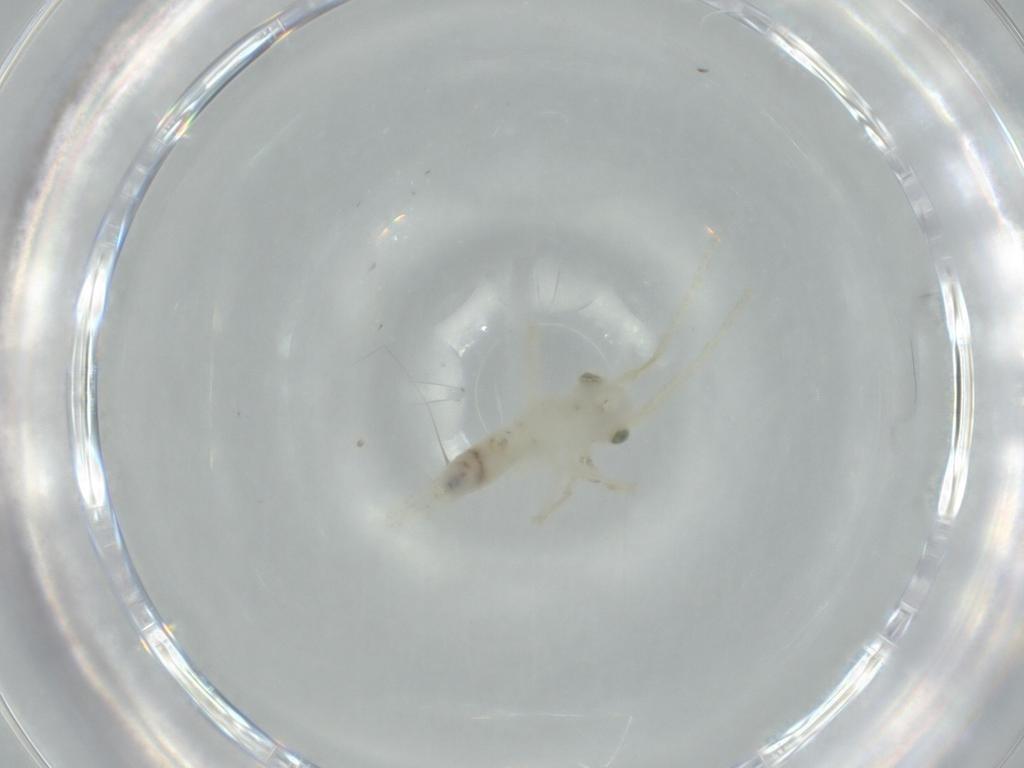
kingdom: Animalia
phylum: Arthropoda
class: Insecta
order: Orthoptera
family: Trigonidiidae
